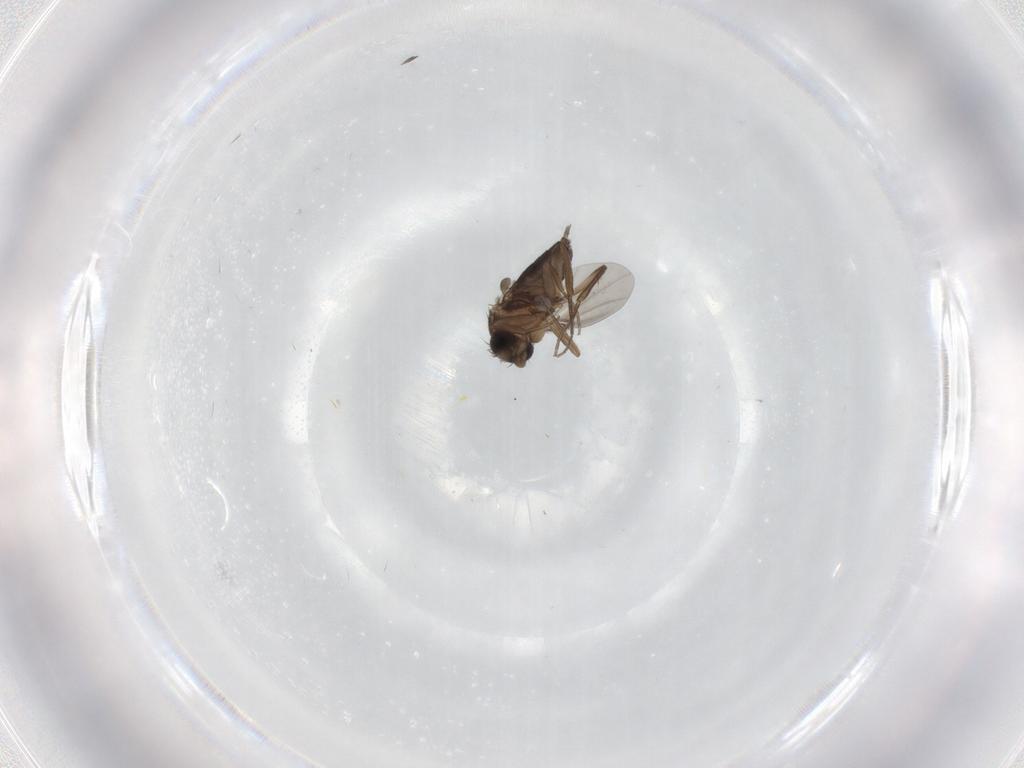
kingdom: Animalia
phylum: Arthropoda
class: Insecta
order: Diptera
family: Phoridae
